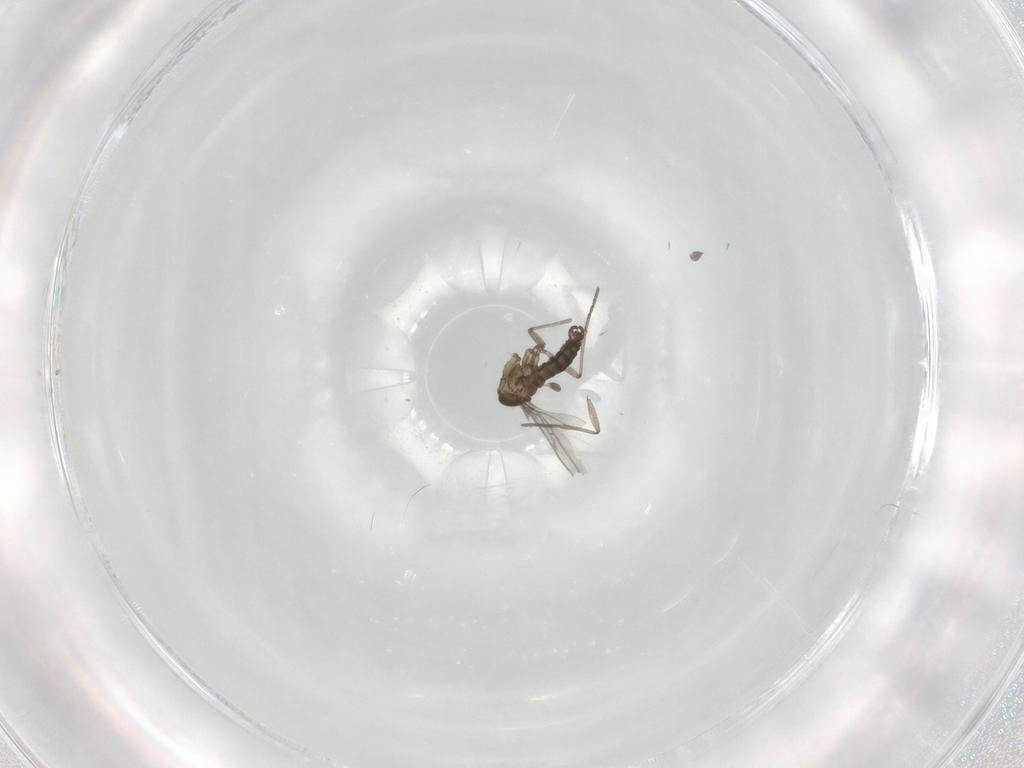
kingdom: Animalia
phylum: Arthropoda
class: Insecta
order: Diptera
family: Sciaridae
